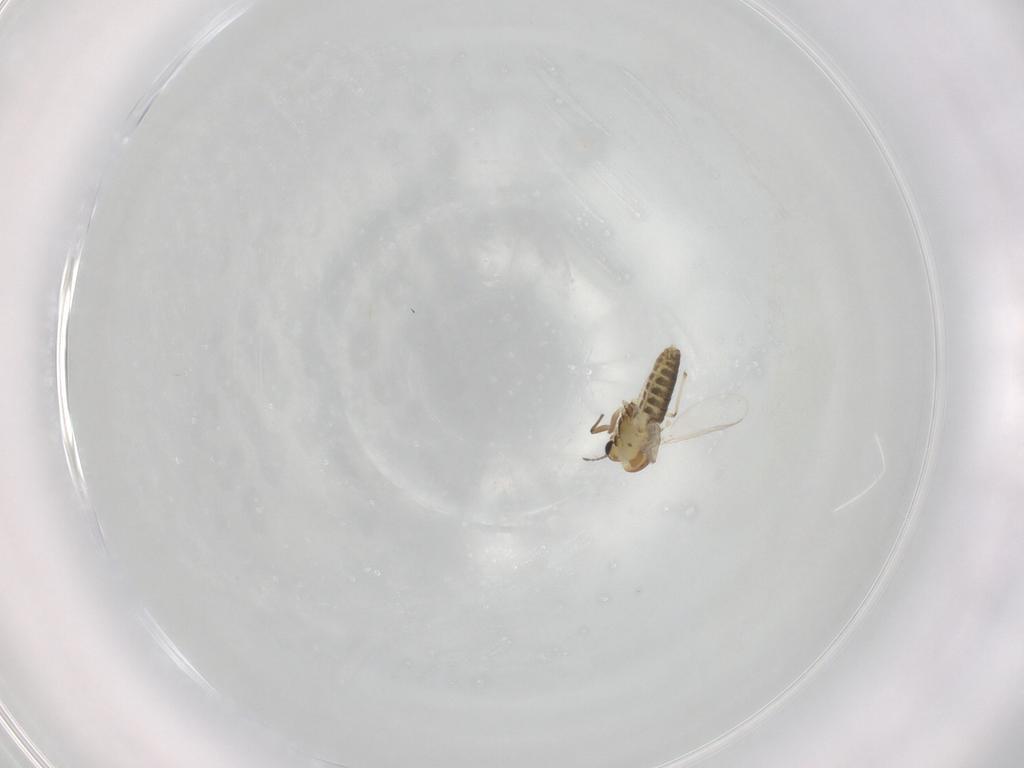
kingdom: Animalia
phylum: Arthropoda
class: Insecta
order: Diptera
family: Chironomidae
